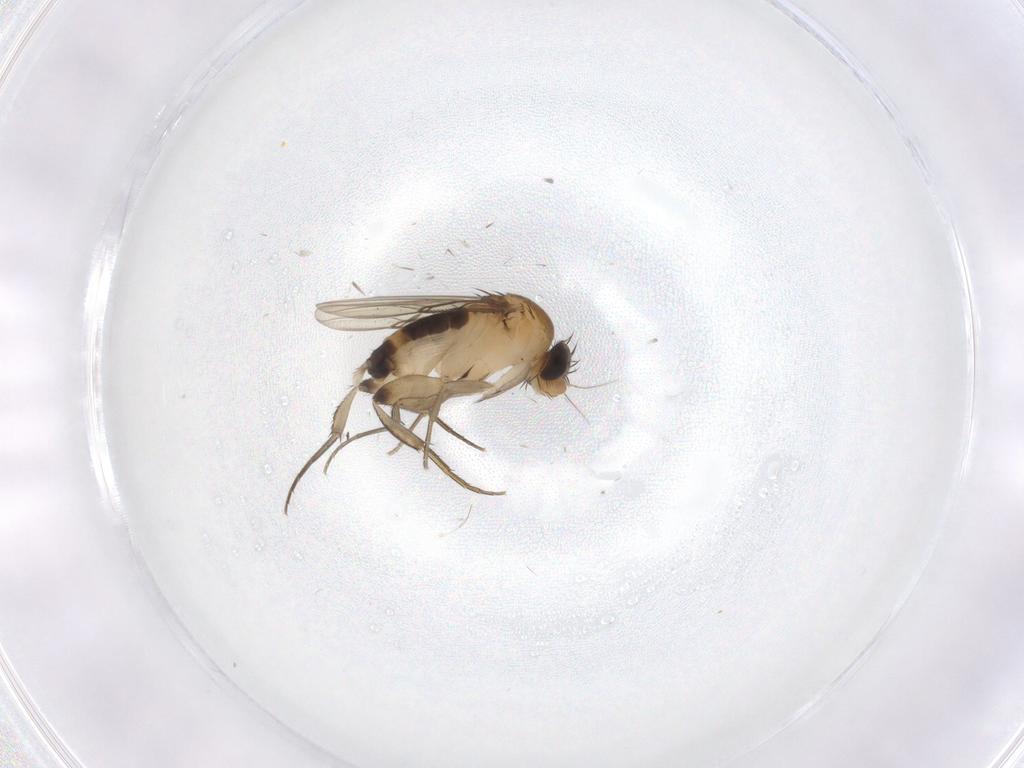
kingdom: Animalia
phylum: Arthropoda
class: Insecta
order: Diptera
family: Phoridae
